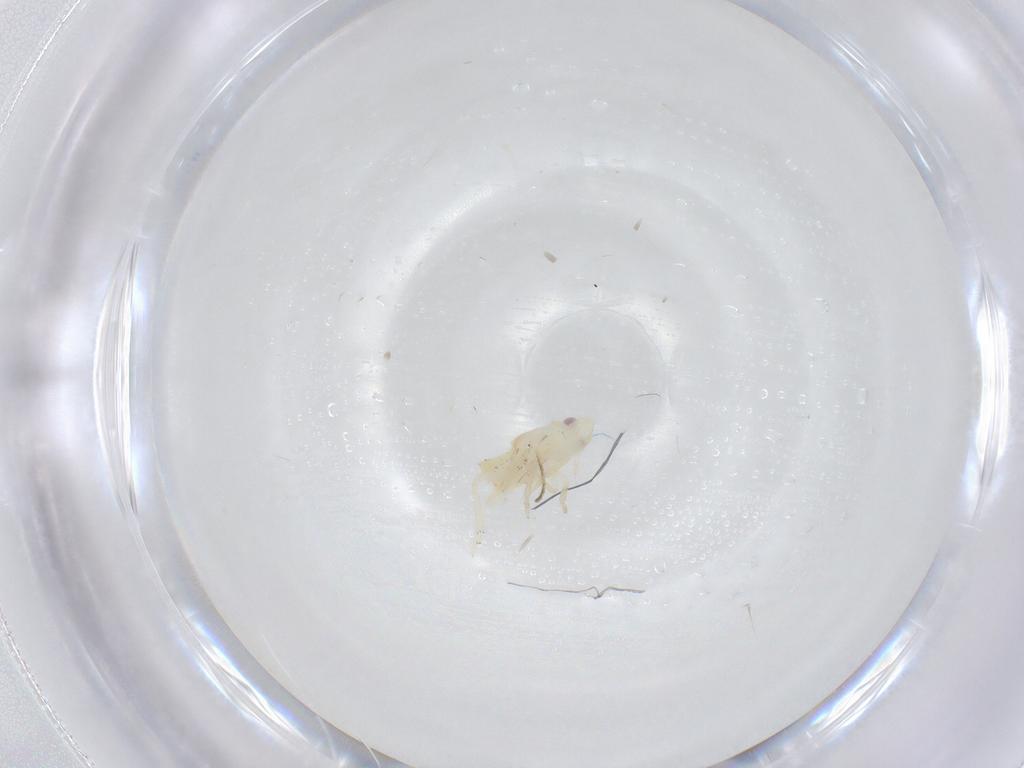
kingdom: Animalia
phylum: Arthropoda
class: Insecta
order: Diptera
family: Psychodidae
